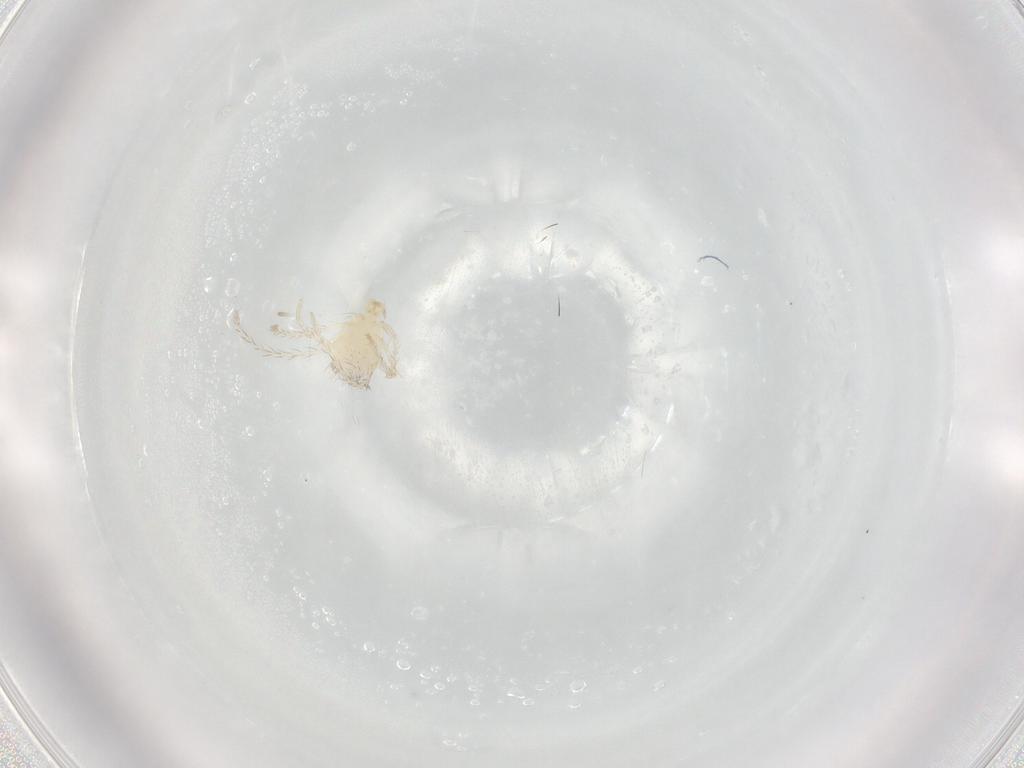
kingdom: Animalia
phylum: Arthropoda
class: Arachnida
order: Trombidiformes
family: Erythraeidae
